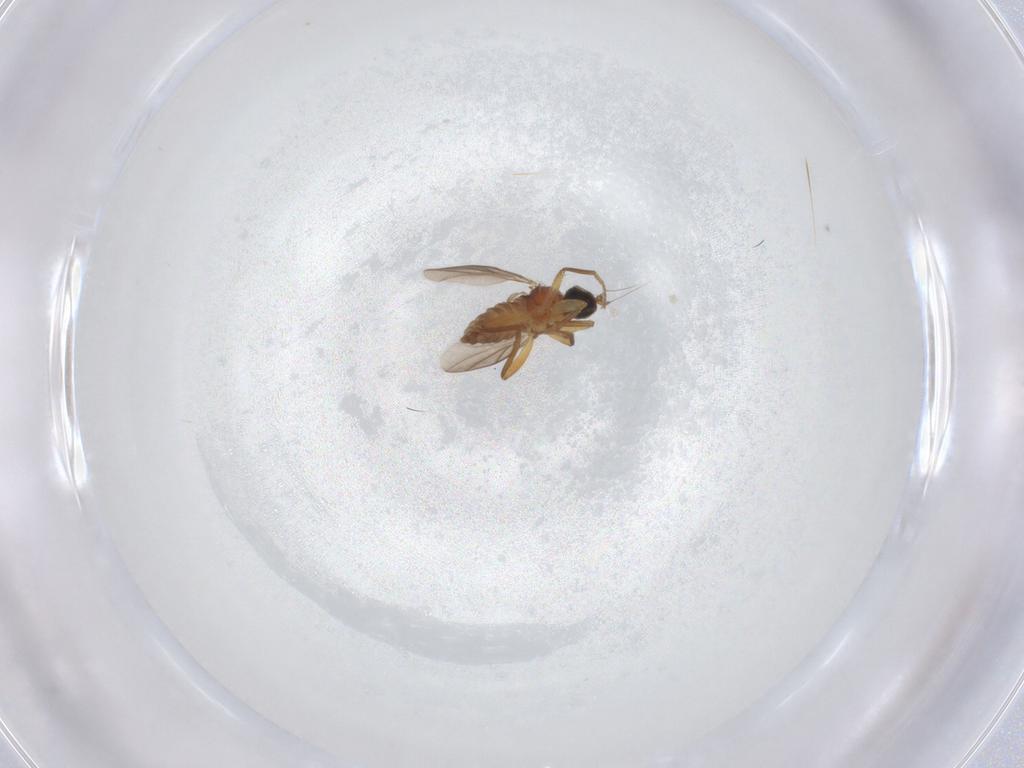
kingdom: Animalia
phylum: Arthropoda
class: Insecta
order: Diptera
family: Hybotidae
